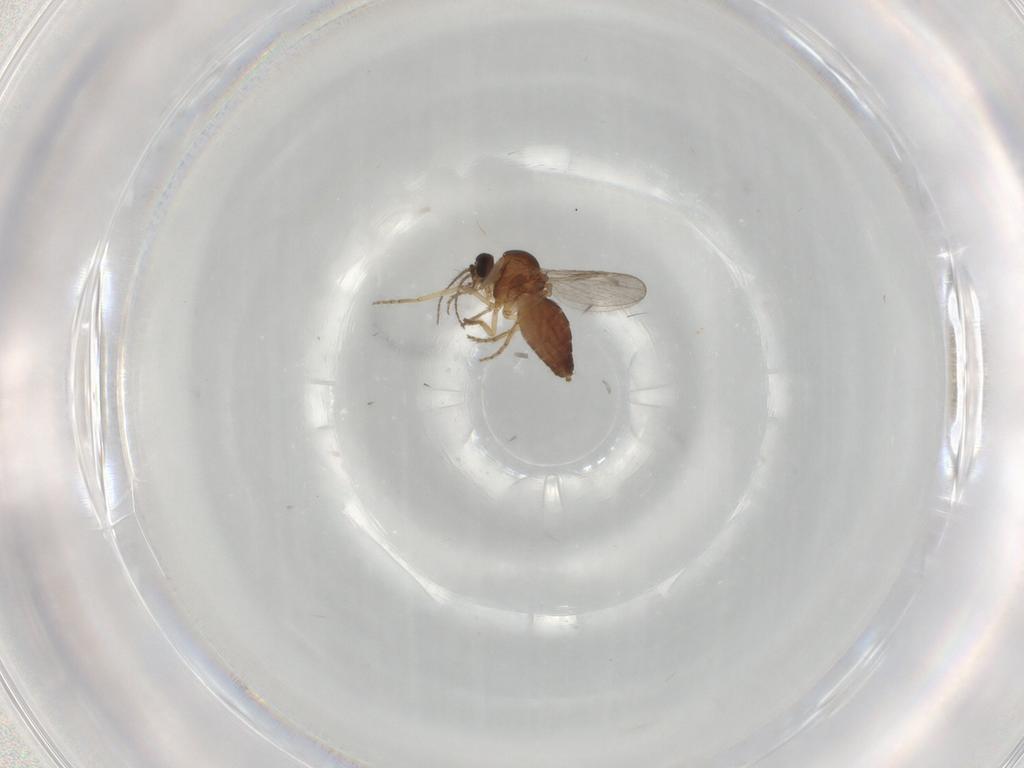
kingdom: Animalia
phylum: Arthropoda
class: Insecta
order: Diptera
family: Ceratopogonidae
